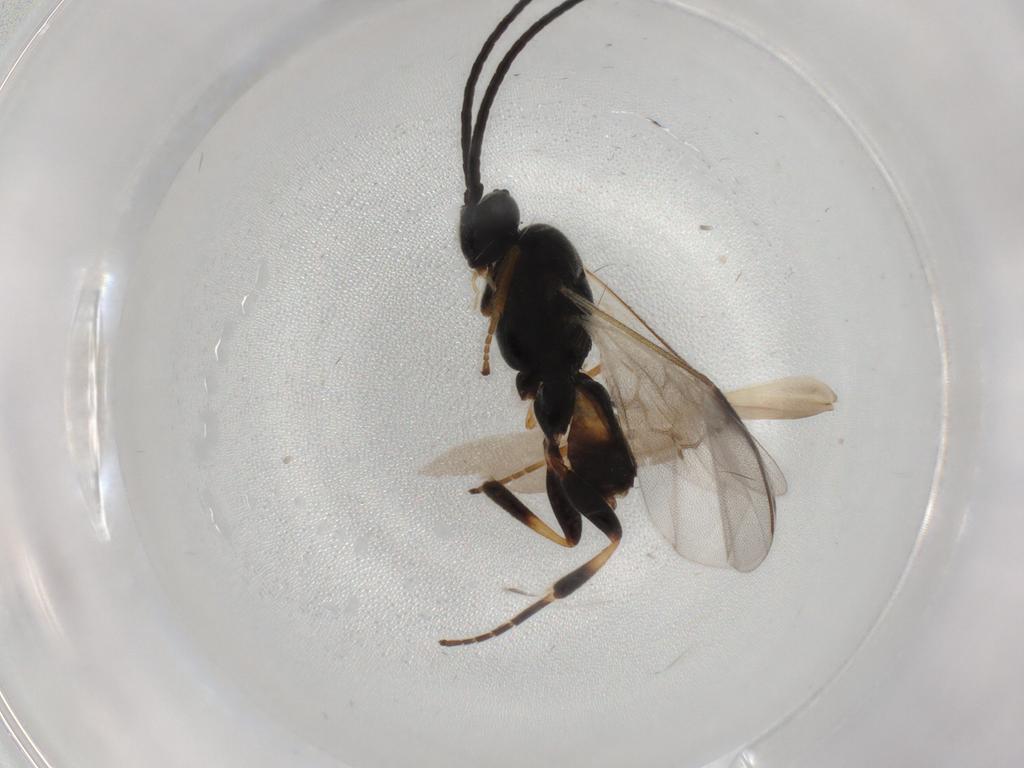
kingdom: Animalia
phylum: Arthropoda
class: Insecta
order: Hymenoptera
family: Braconidae
